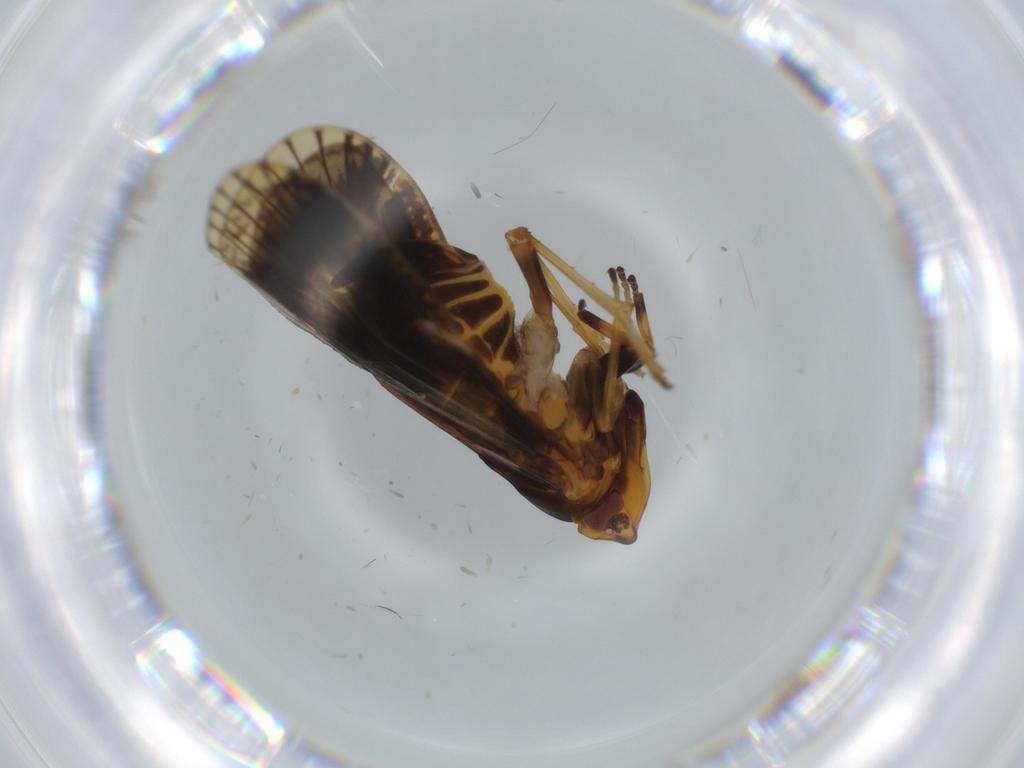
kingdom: Animalia
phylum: Arthropoda
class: Insecta
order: Hemiptera
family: Cixiidae
